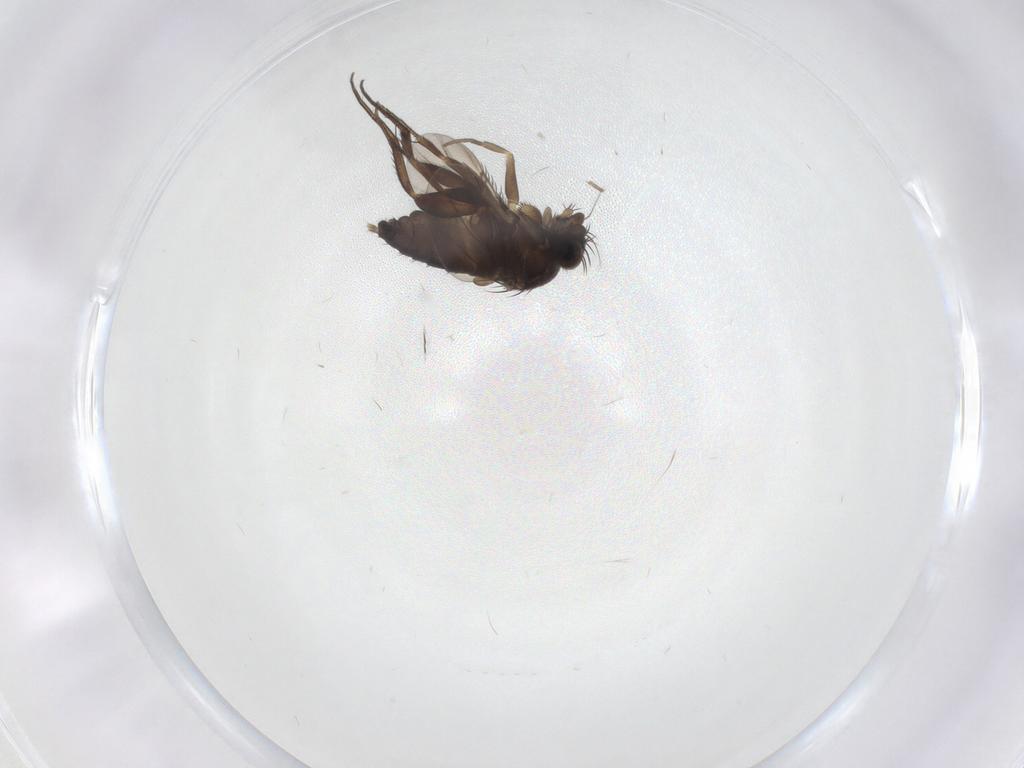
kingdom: Animalia
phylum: Arthropoda
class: Insecta
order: Diptera
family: Phoridae
